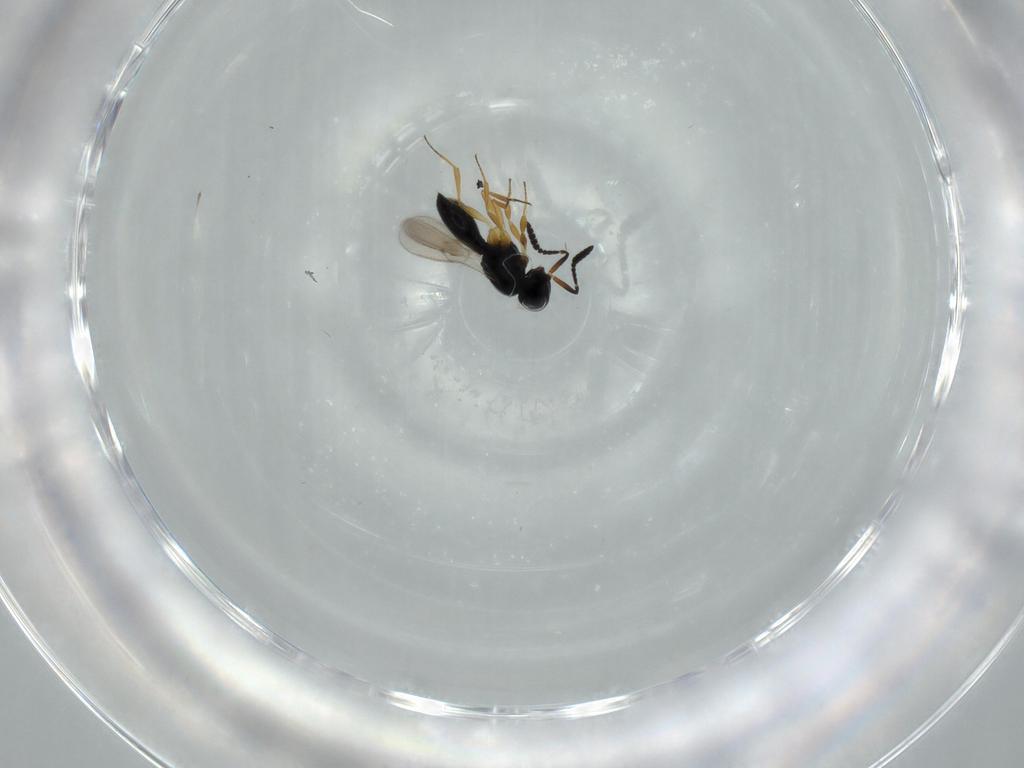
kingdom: Animalia
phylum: Arthropoda
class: Insecta
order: Hymenoptera
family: Scelionidae
